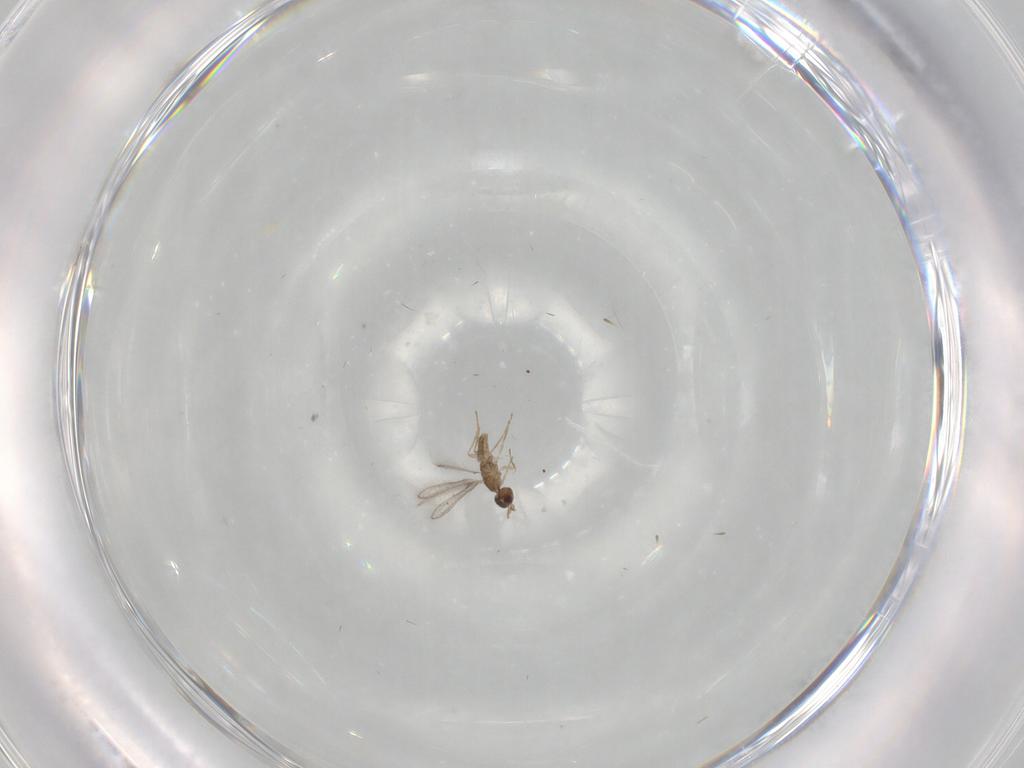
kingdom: Animalia
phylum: Arthropoda
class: Insecta
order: Hymenoptera
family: Mymaridae
